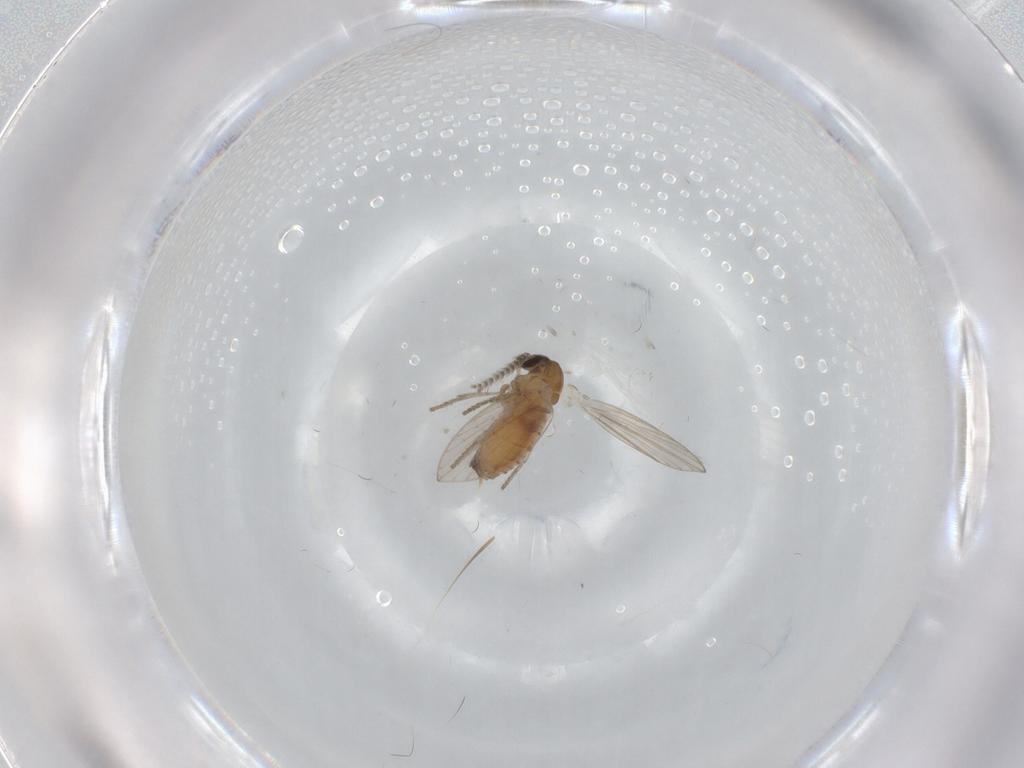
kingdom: Animalia
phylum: Arthropoda
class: Insecta
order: Diptera
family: Psychodidae
